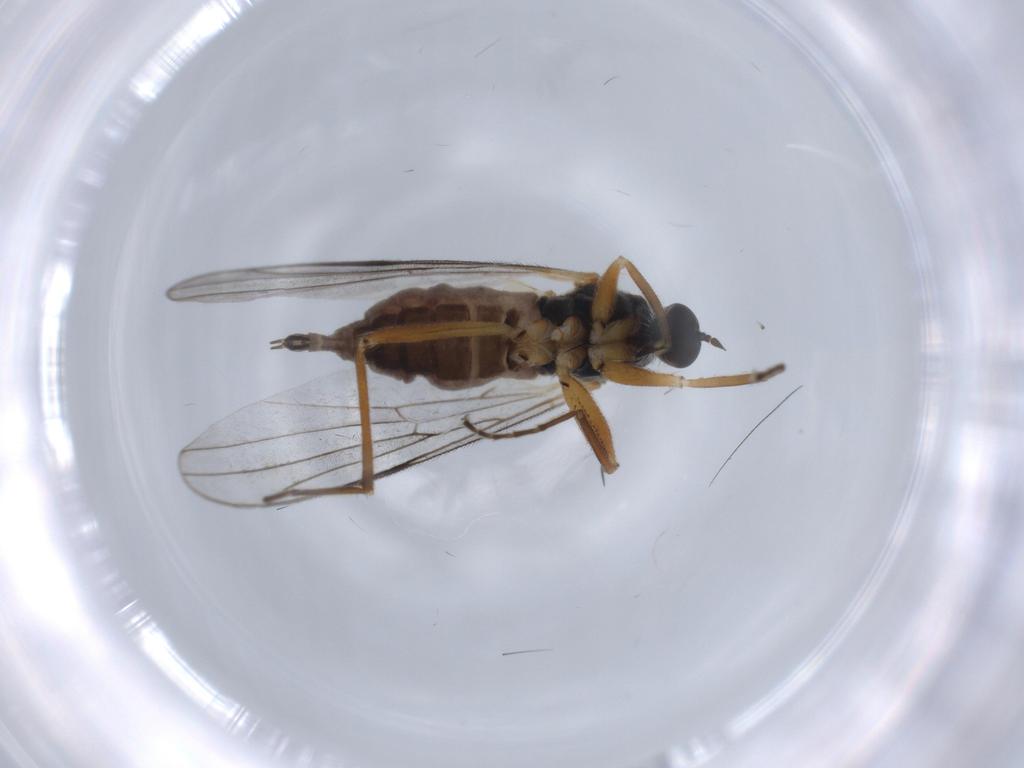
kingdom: Animalia
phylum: Arthropoda
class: Insecta
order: Diptera
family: Hybotidae
